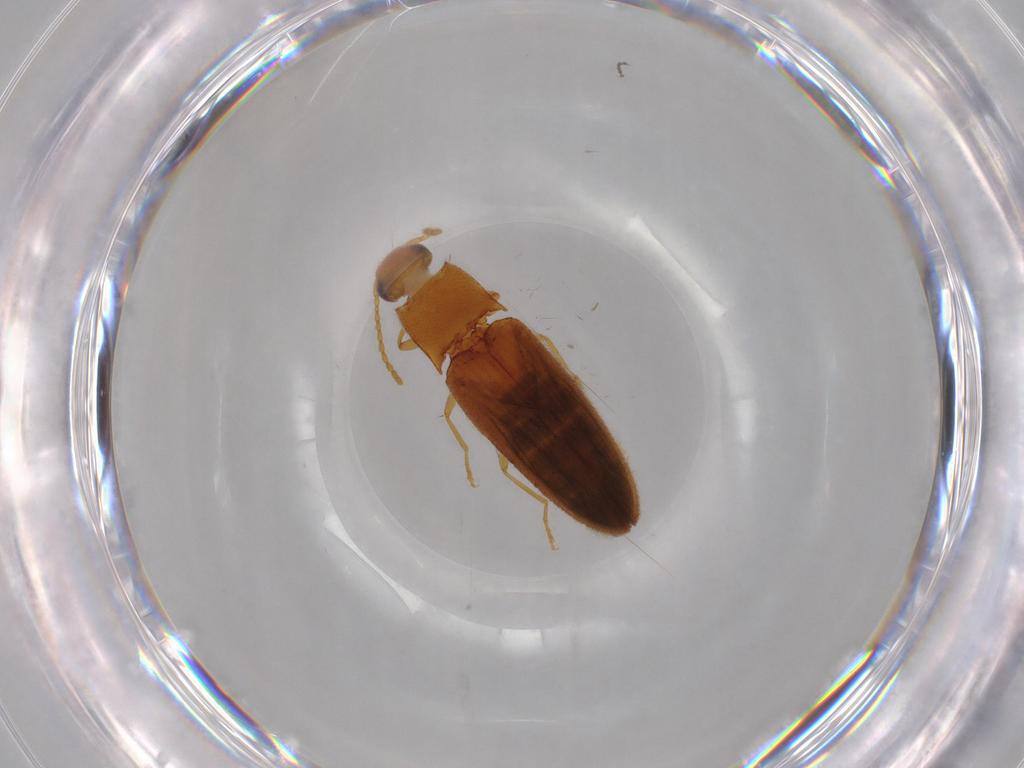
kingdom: Animalia
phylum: Arthropoda
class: Insecta
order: Coleoptera
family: Elateridae
